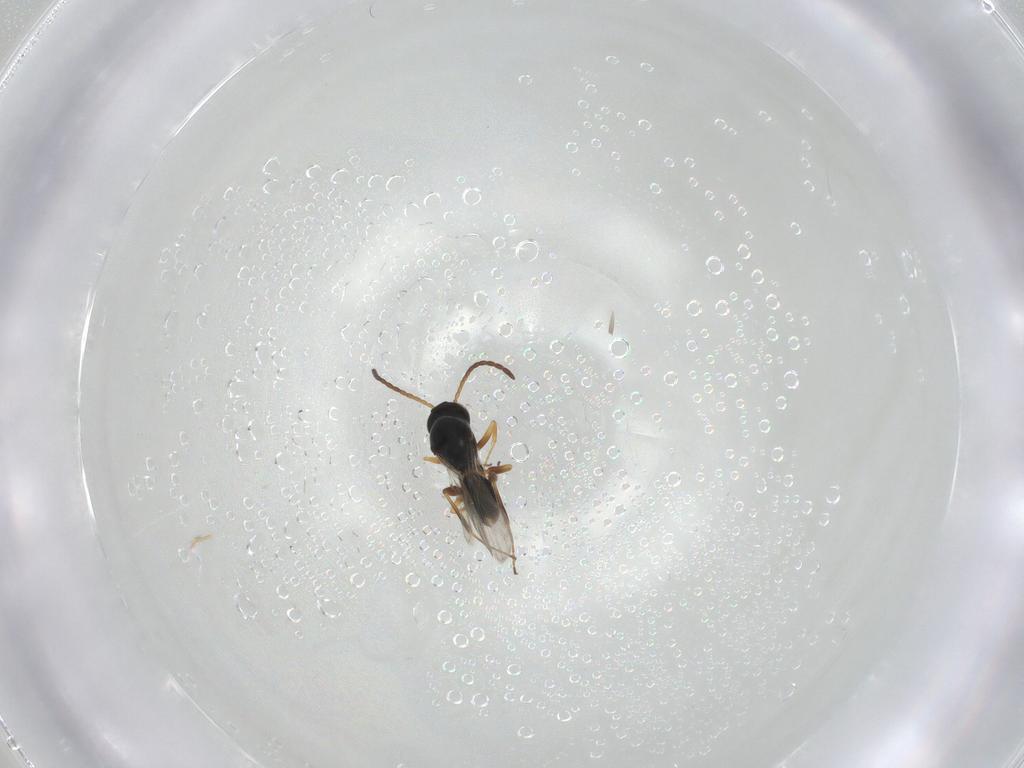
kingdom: Animalia
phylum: Arthropoda
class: Insecta
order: Hymenoptera
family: Figitidae
